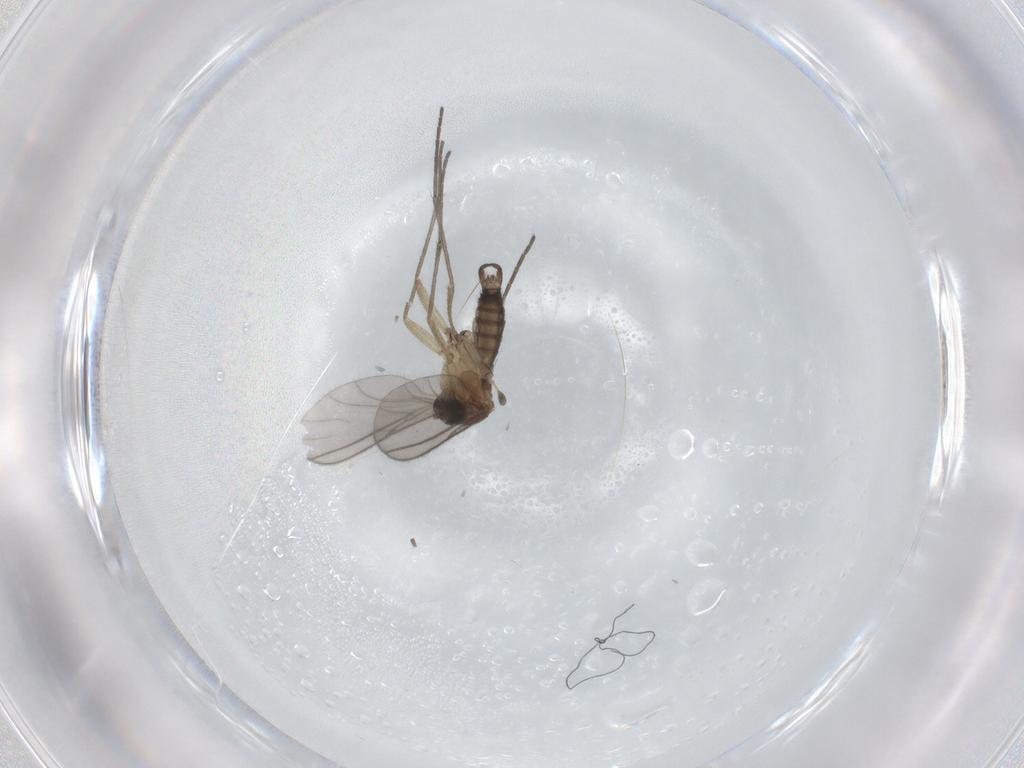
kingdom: Animalia
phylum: Arthropoda
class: Insecta
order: Diptera
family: Sciaridae
